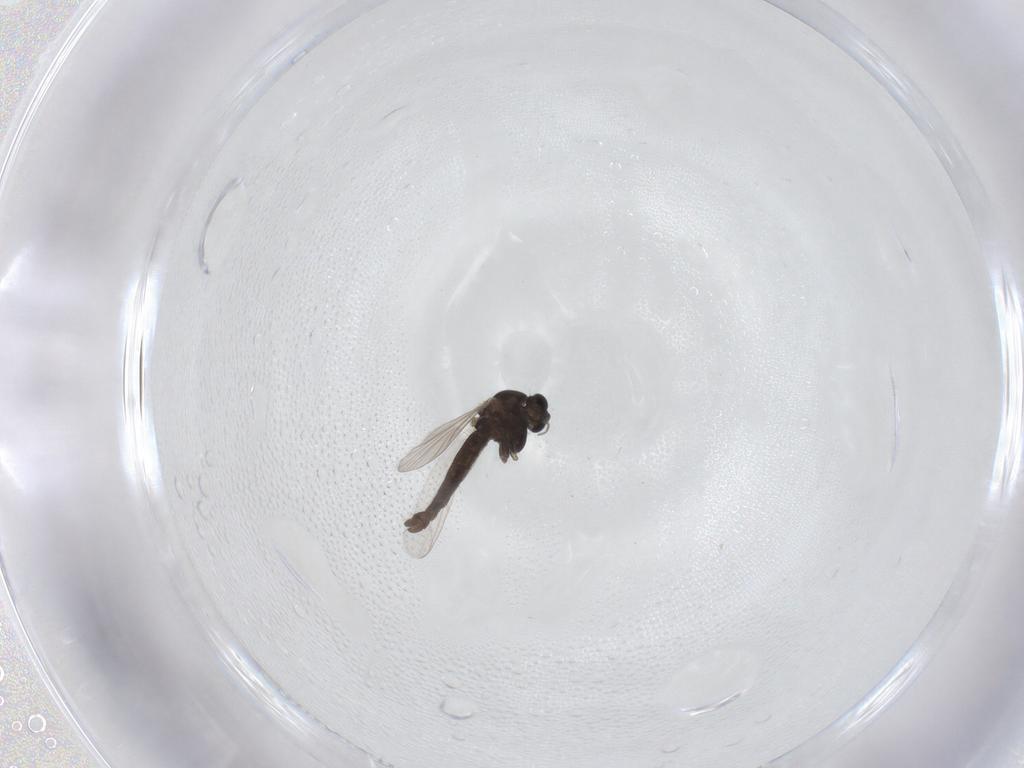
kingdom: Animalia
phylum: Arthropoda
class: Insecta
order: Diptera
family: Chironomidae
